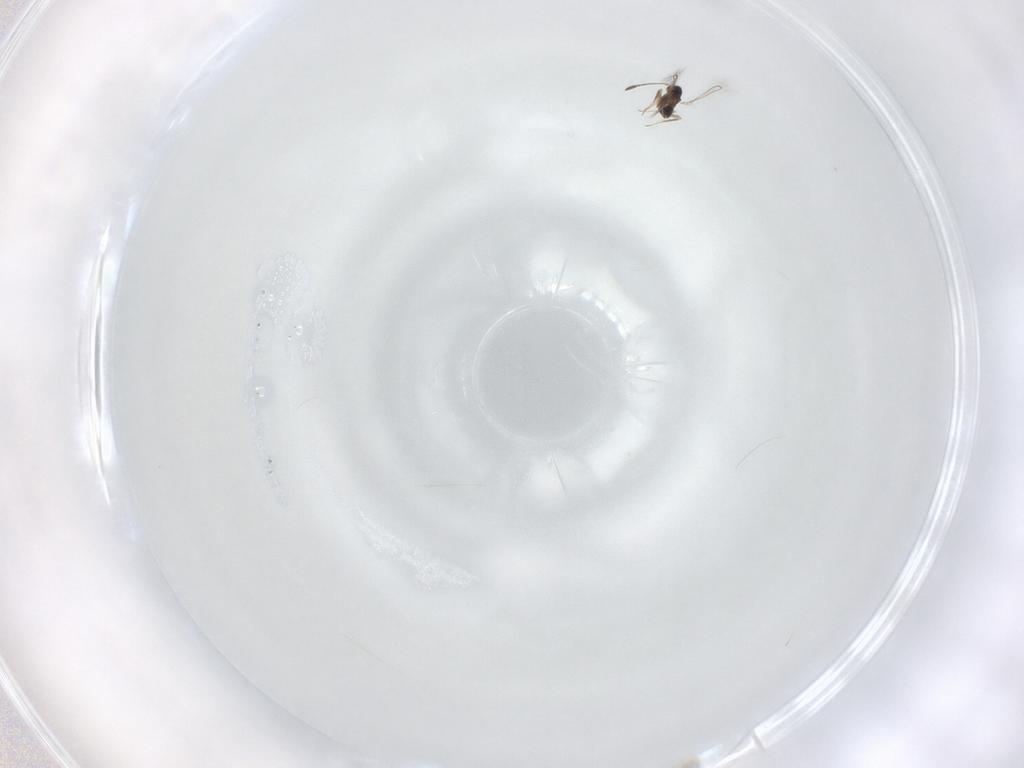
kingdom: Animalia
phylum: Arthropoda
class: Insecta
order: Hymenoptera
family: Eulophidae
